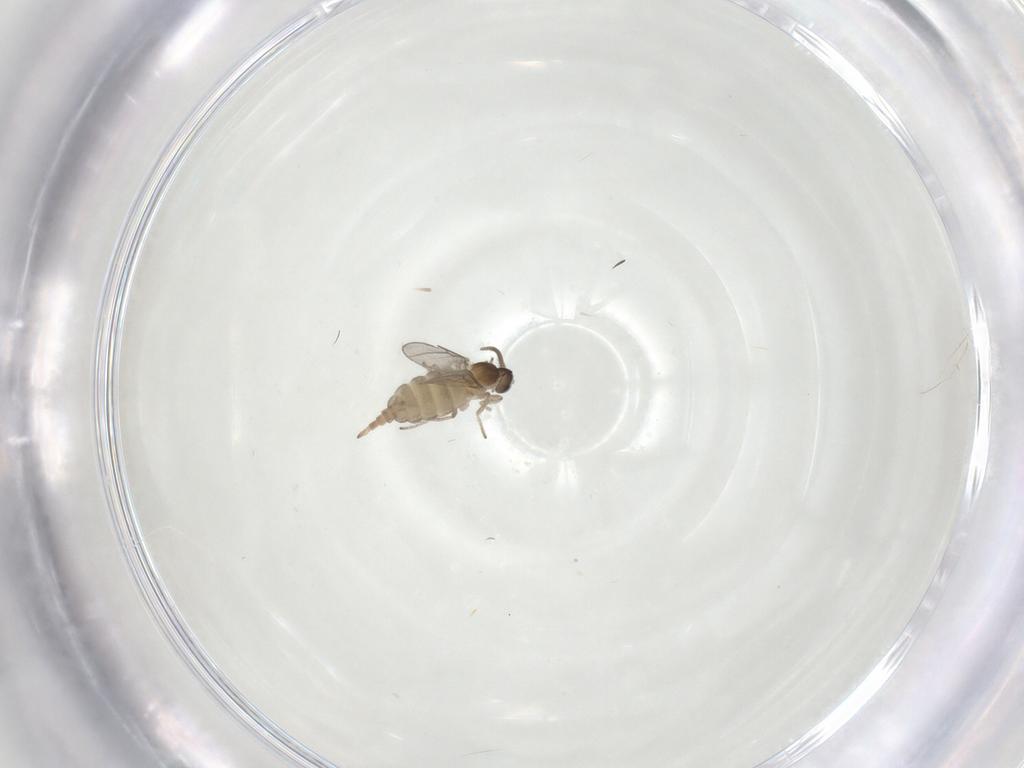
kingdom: Animalia
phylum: Arthropoda
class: Insecta
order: Diptera
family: Cecidomyiidae
